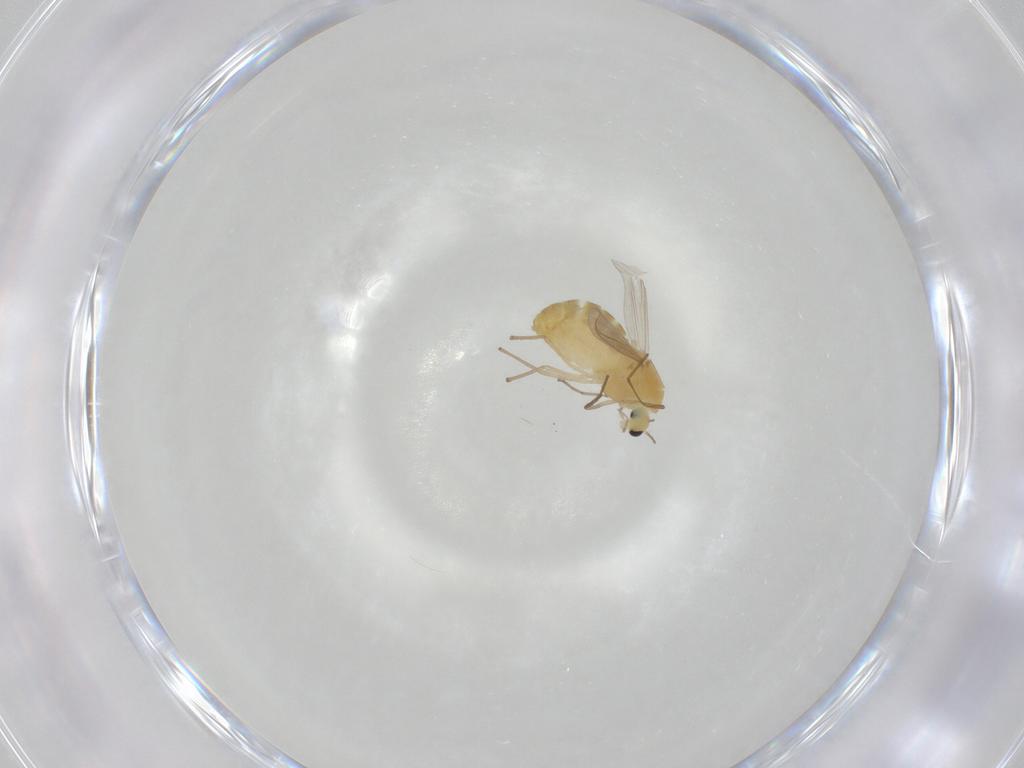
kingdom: Animalia
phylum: Arthropoda
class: Insecta
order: Diptera
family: Chironomidae
